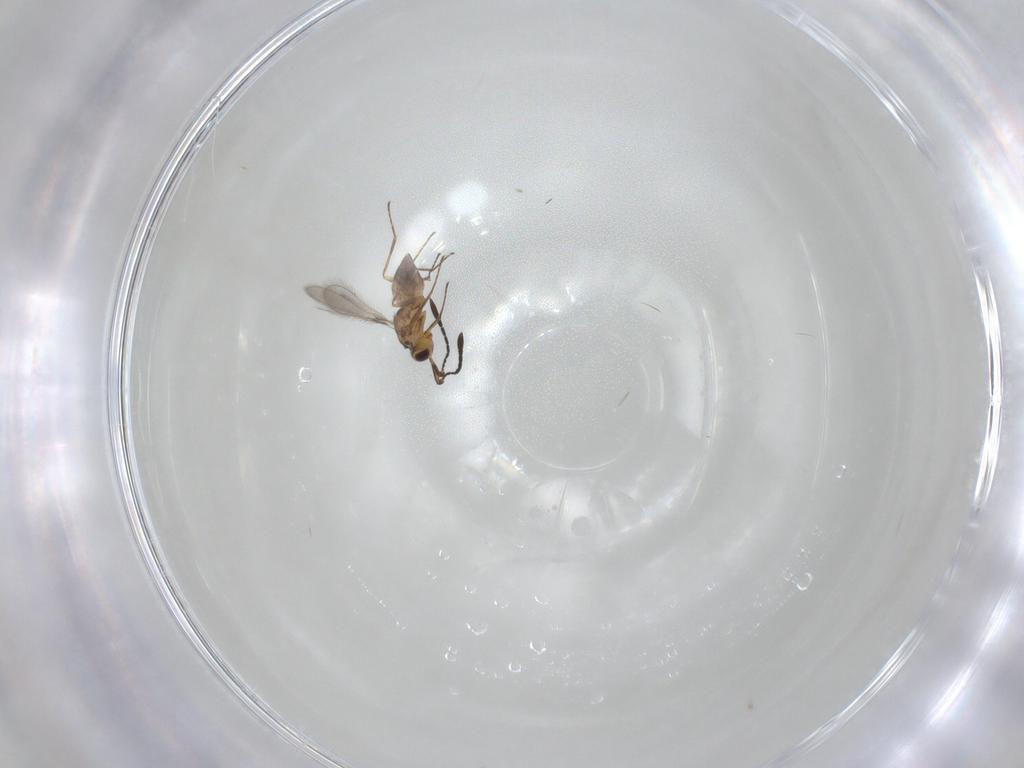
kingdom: Animalia
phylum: Arthropoda
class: Insecta
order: Hymenoptera
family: Mymaridae
